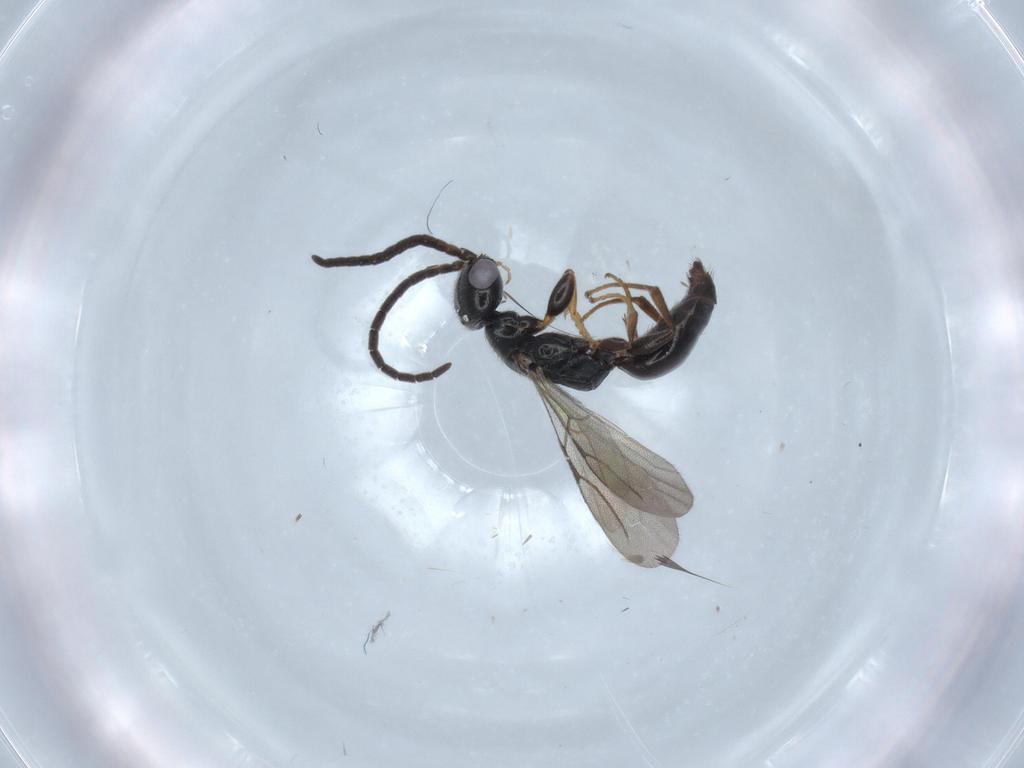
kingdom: Animalia
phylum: Arthropoda
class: Insecta
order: Hymenoptera
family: Bethylidae
